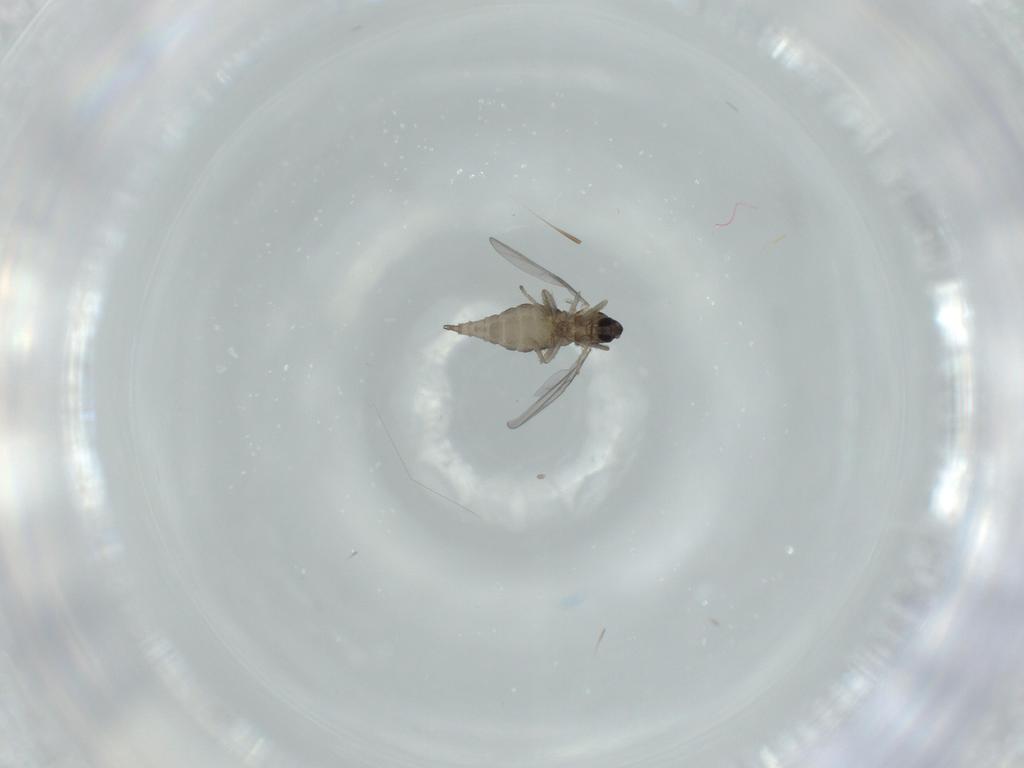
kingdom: Animalia
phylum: Arthropoda
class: Insecta
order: Diptera
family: Cecidomyiidae
